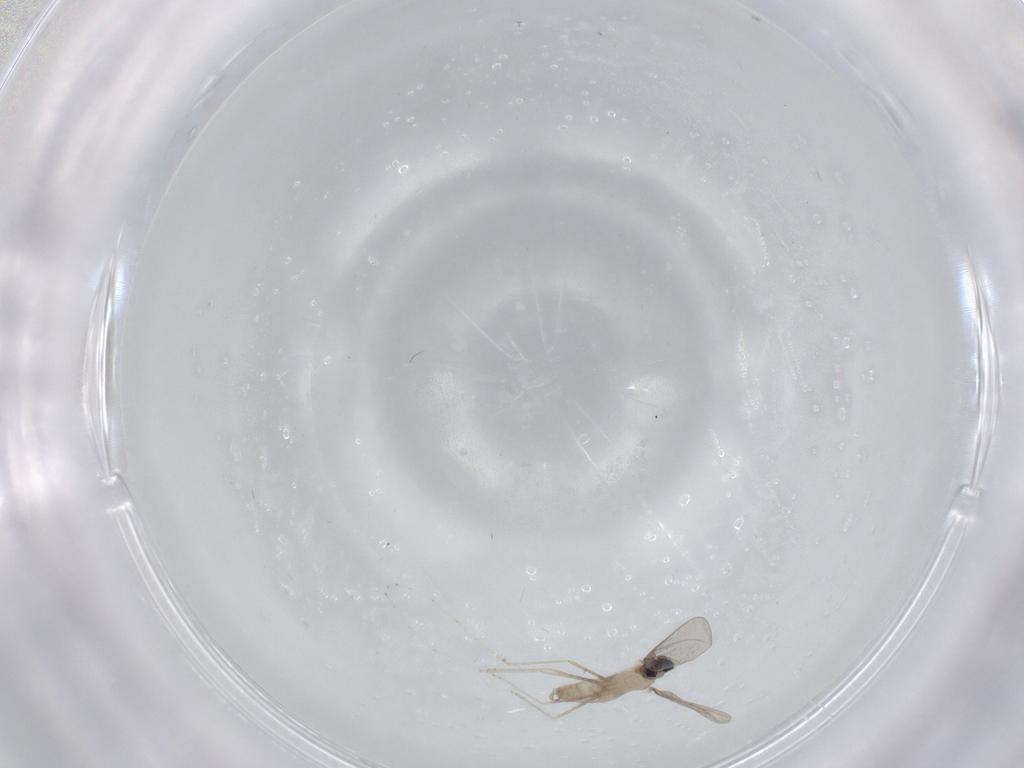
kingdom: Animalia
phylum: Arthropoda
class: Insecta
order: Diptera
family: Cecidomyiidae
